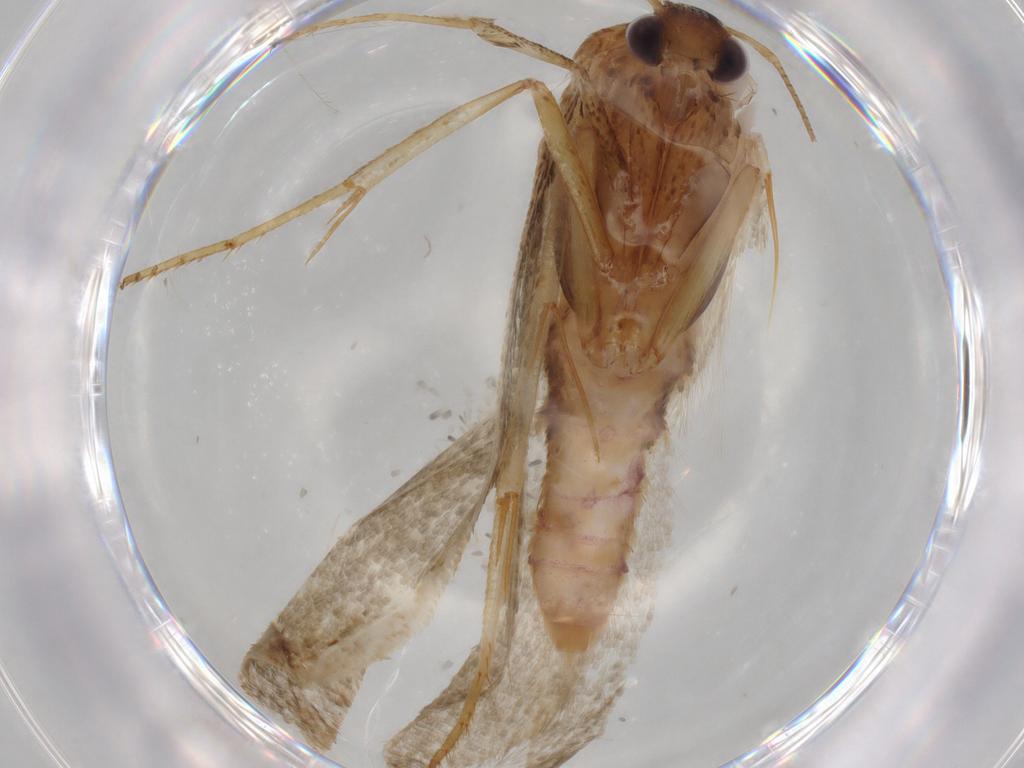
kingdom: Animalia
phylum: Arthropoda
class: Insecta
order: Lepidoptera
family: Blastobasidae
